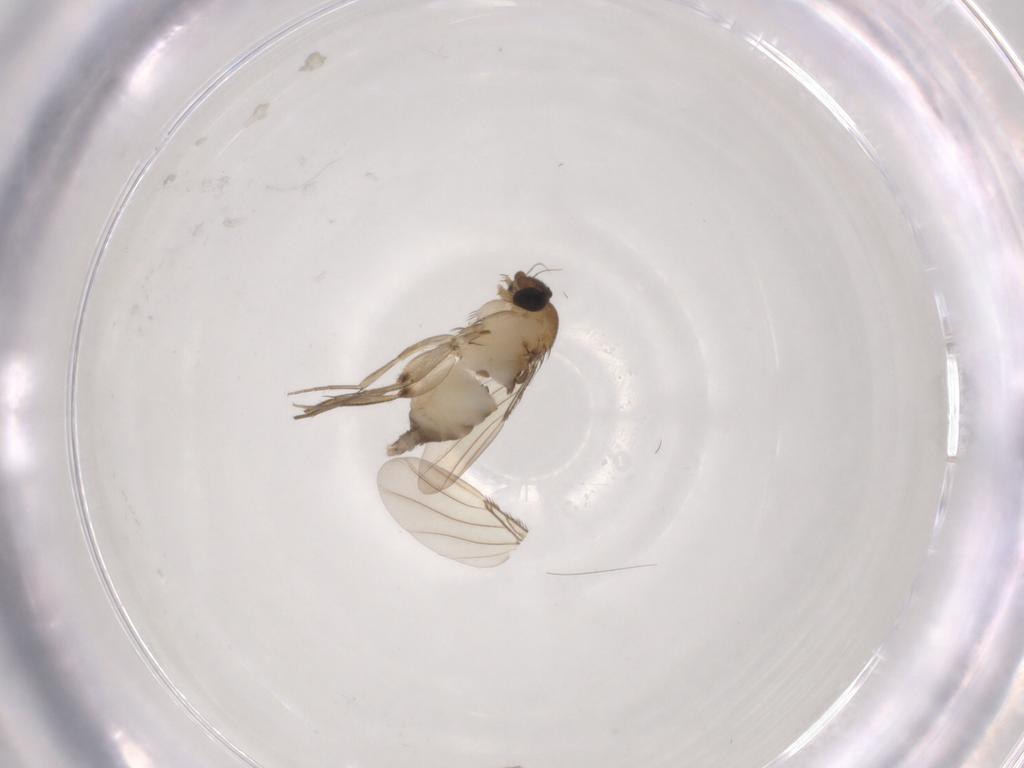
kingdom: Animalia
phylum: Arthropoda
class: Insecta
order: Diptera
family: Phoridae
